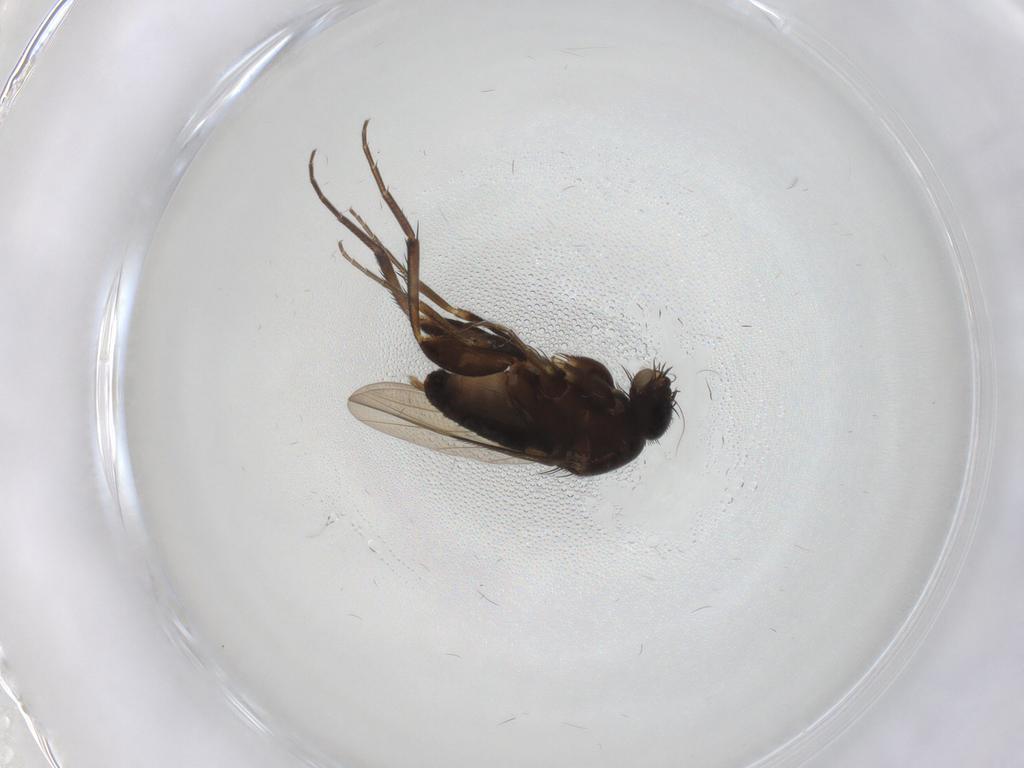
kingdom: Animalia
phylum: Arthropoda
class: Insecta
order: Diptera
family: Phoridae
